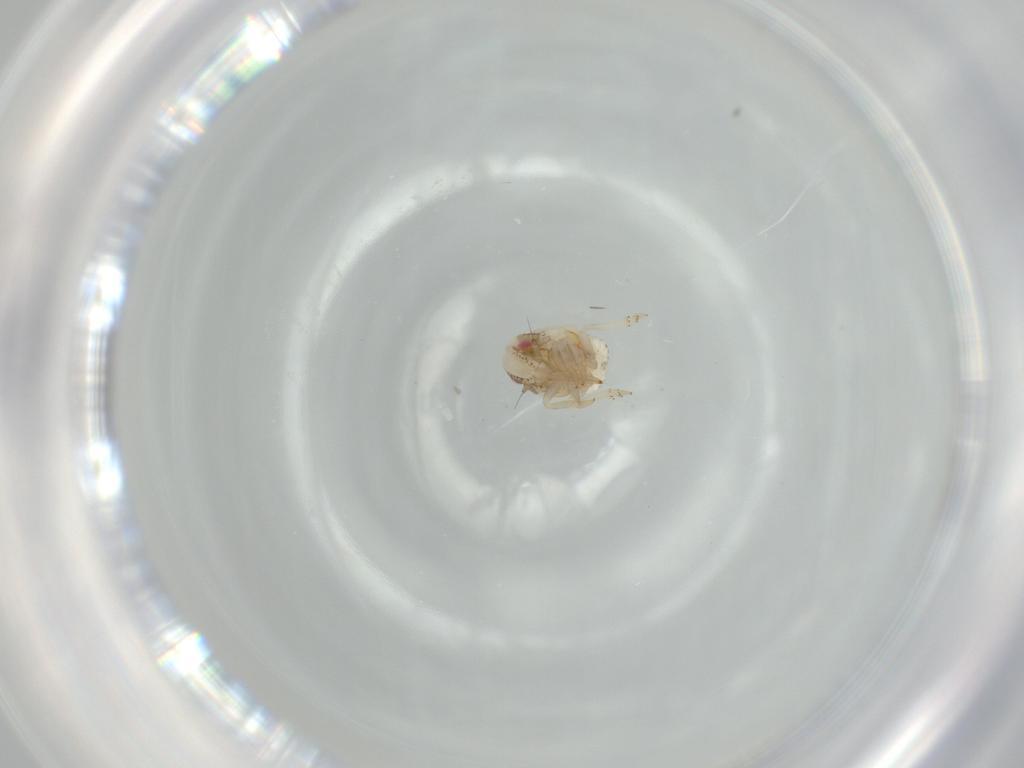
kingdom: Animalia
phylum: Arthropoda
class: Insecta
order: Hemiptera
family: Acanaloniidae
